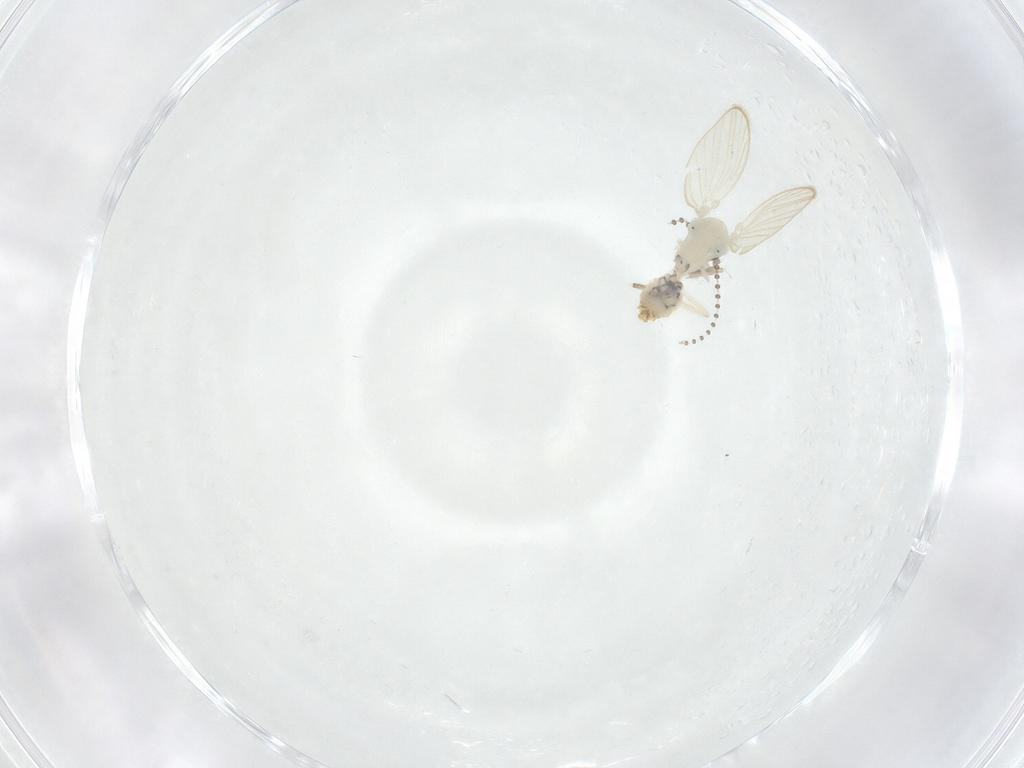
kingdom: Animalia
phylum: Arthropoda
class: Insecta
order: Diptera
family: Psychodidae
